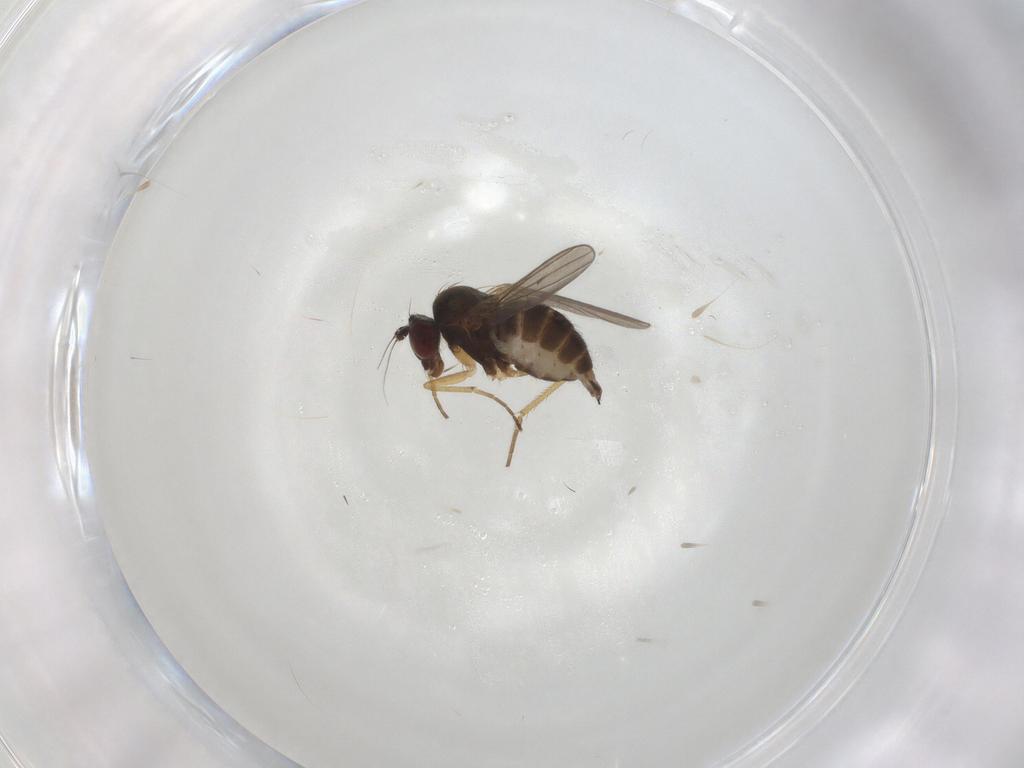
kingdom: Animalia
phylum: Arthropoda
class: Insecta
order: Diptera
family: Dolichopodidae
